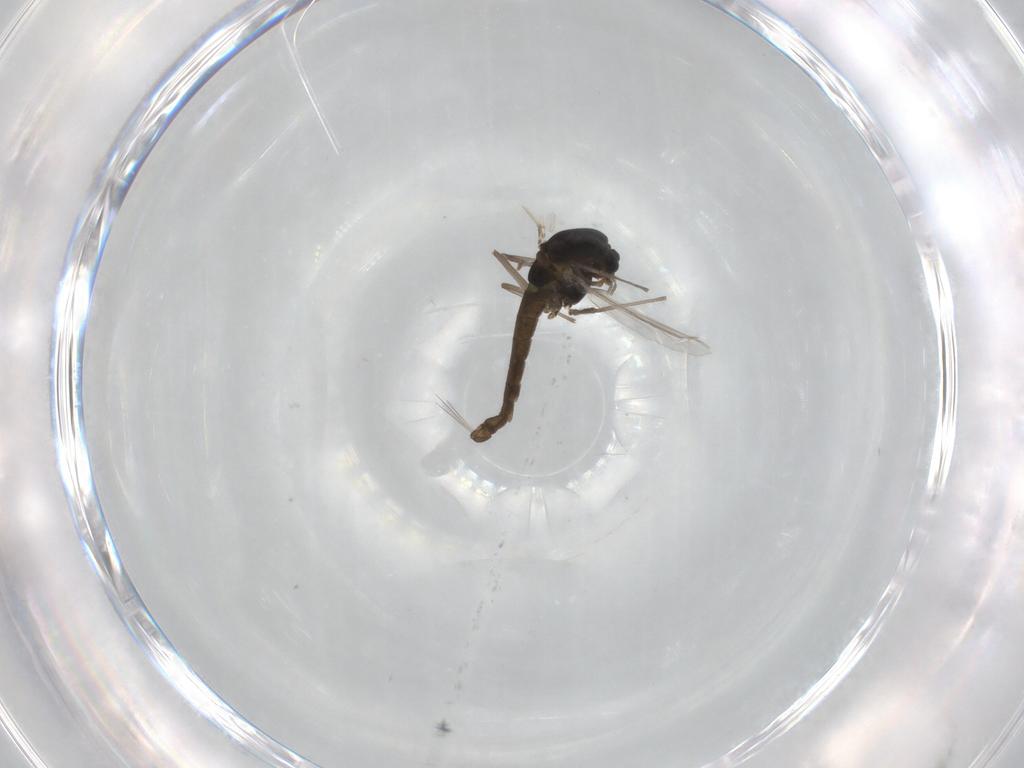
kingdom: Animalia
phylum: Arthropoda
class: Insecta
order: Diptera
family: Chironomidae
